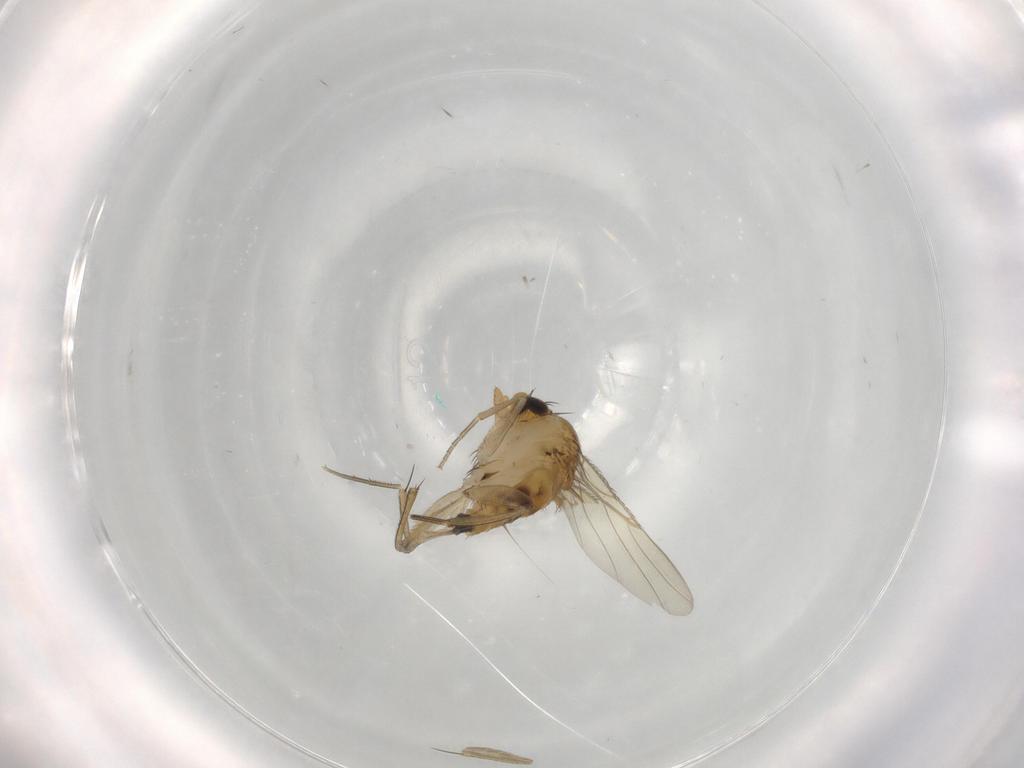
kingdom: Animalia
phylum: Arthropoda
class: Insecta
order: Diptera
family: Phoridae
